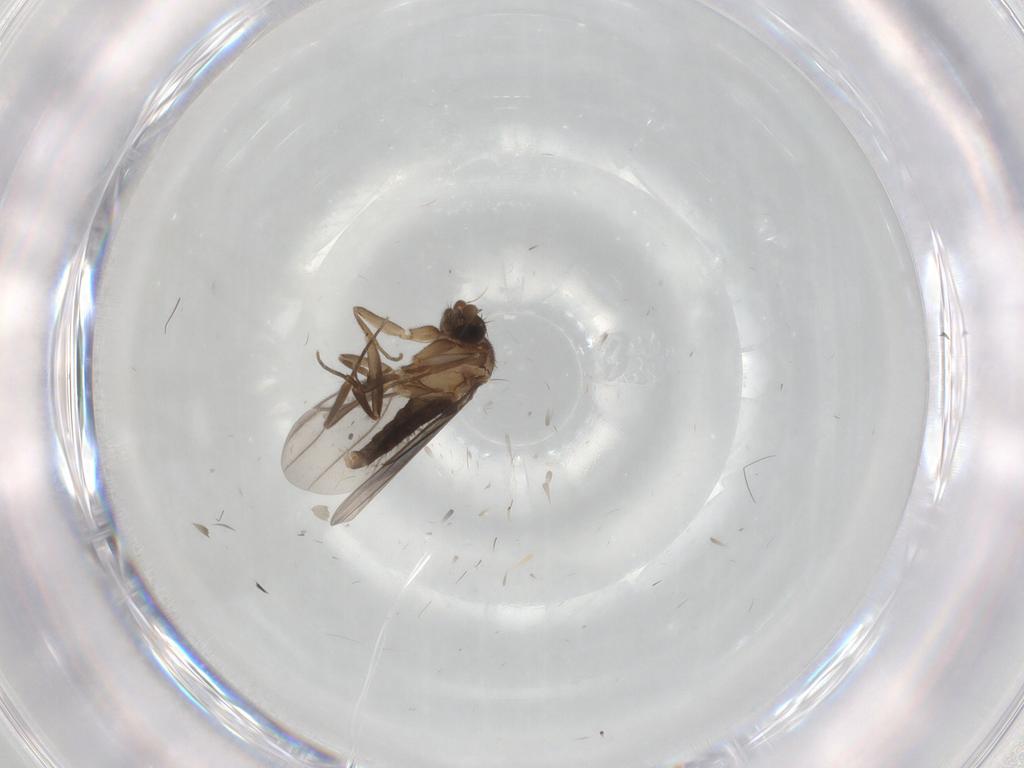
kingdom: Animalia
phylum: Arthropoda
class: Insecta
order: Diptera
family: Phoridae
